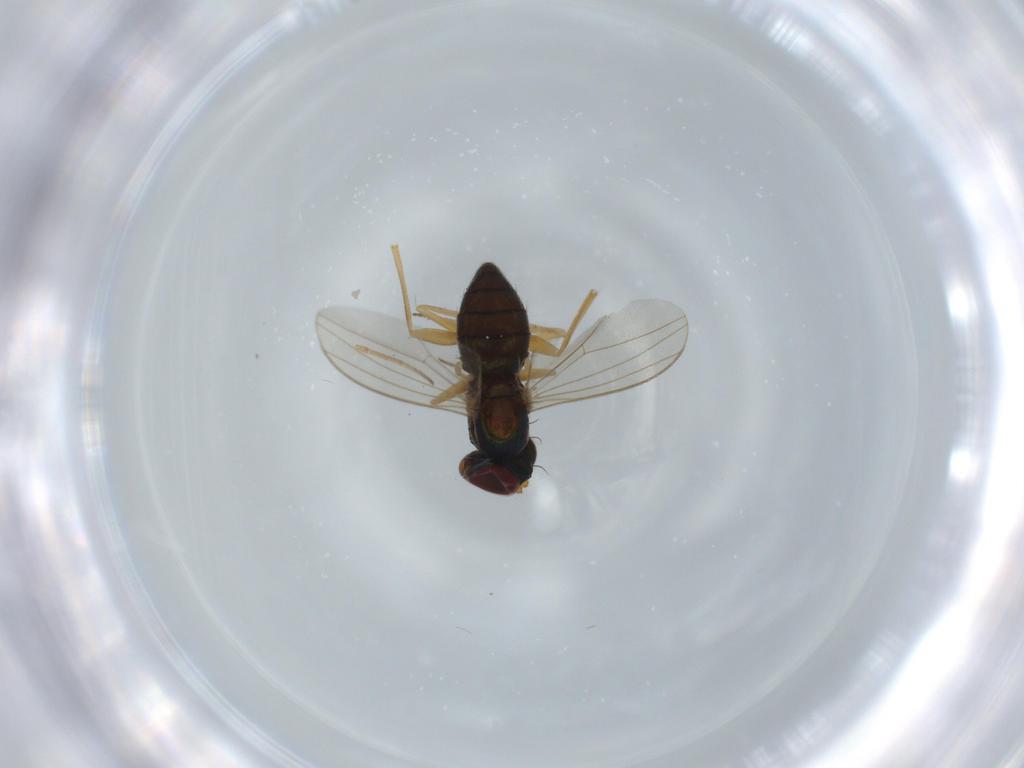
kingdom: Animalia
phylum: Arthropoda
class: Insecta
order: Diptera
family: Dolichopodidae
